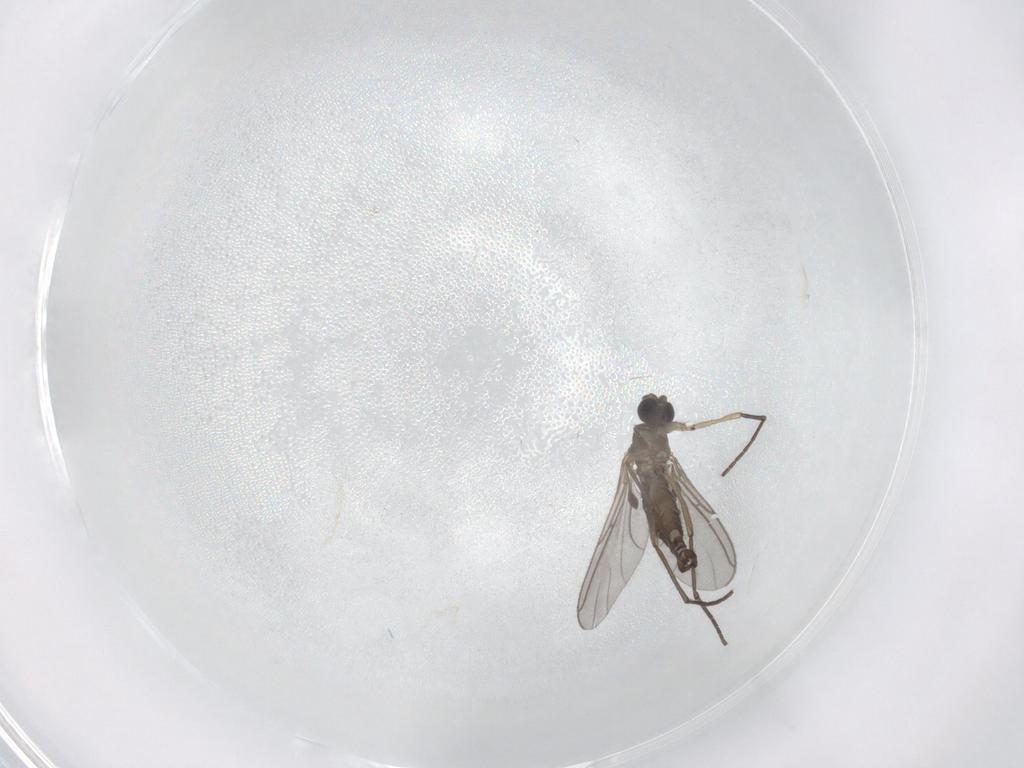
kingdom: Animalia
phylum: Arthropoda
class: Insecta
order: Diptera
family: Sciaridae
